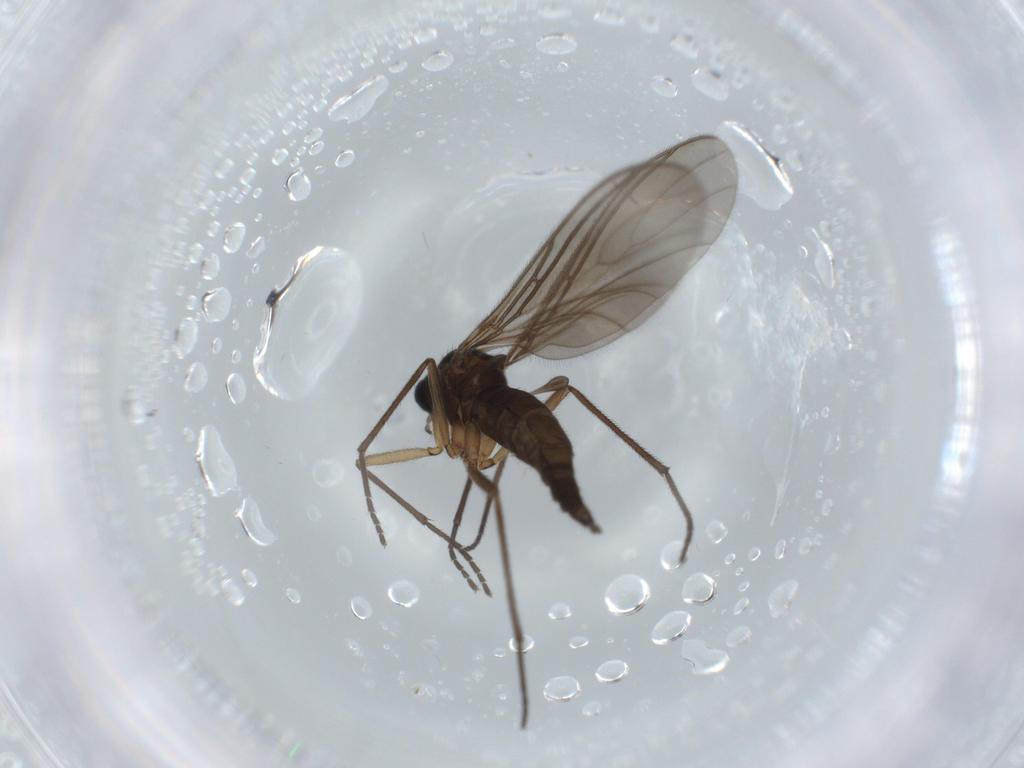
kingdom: Animalia
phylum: Arthropoda
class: Insecta
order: Diptera
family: Sciaridae
